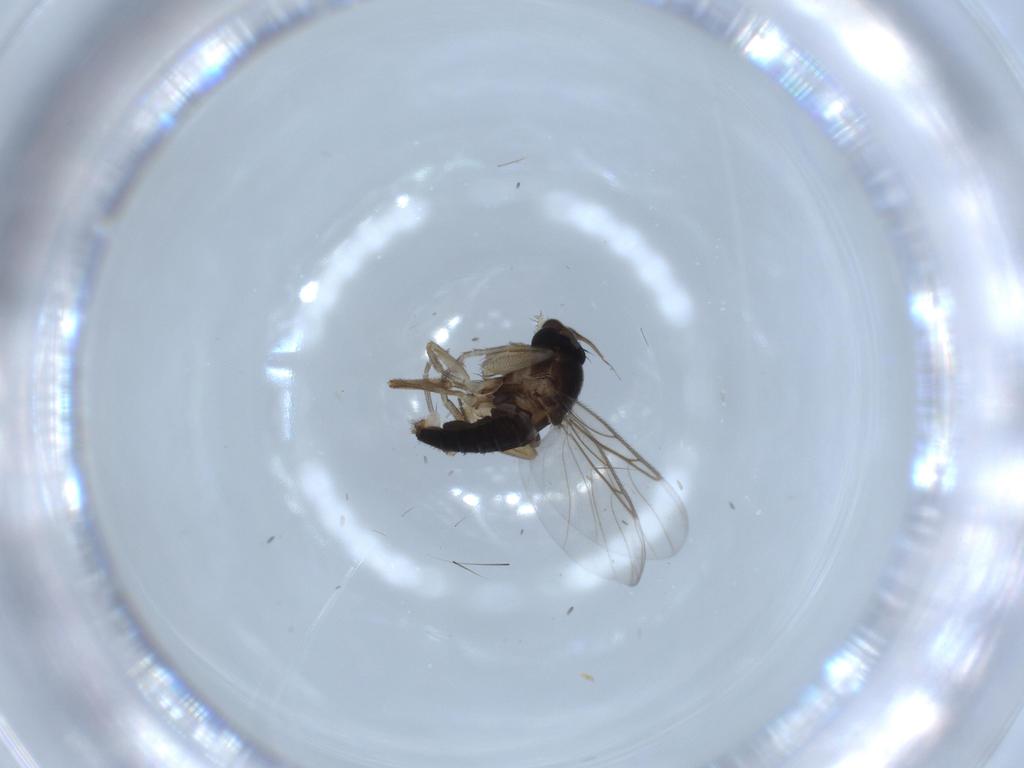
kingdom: Animalia
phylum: Arthropoda
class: Insecta
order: Diptera
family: Sciaridae
